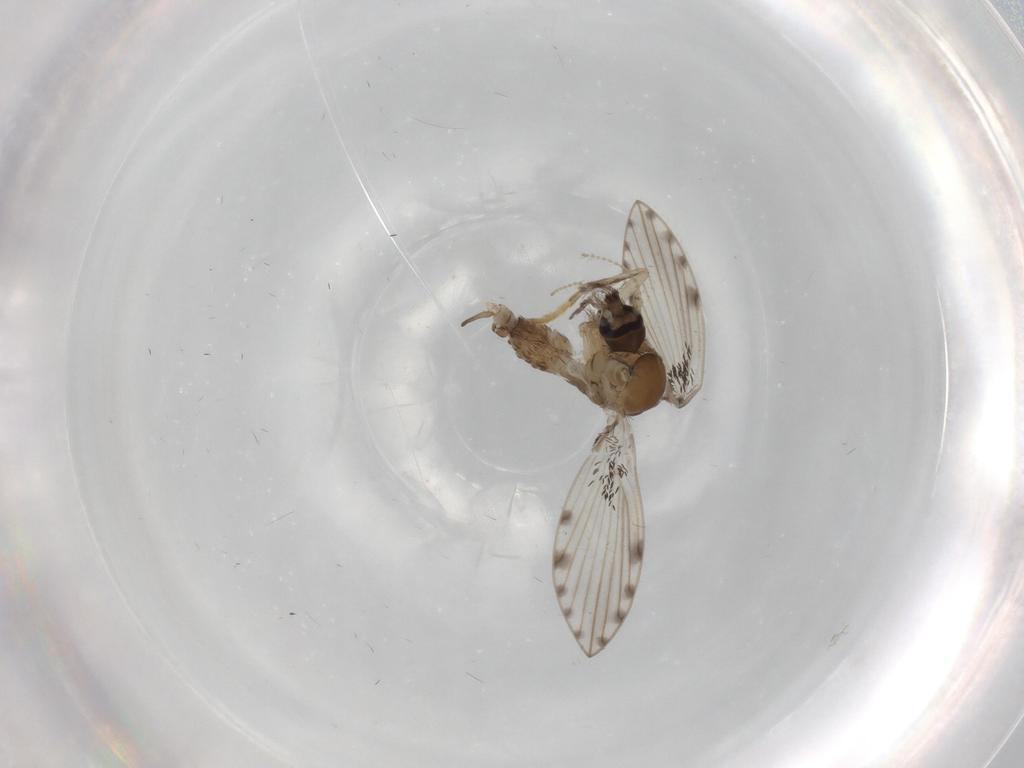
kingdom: Animalia
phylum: Arthropoda
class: Insecta
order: Diptera
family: Psychodidae
